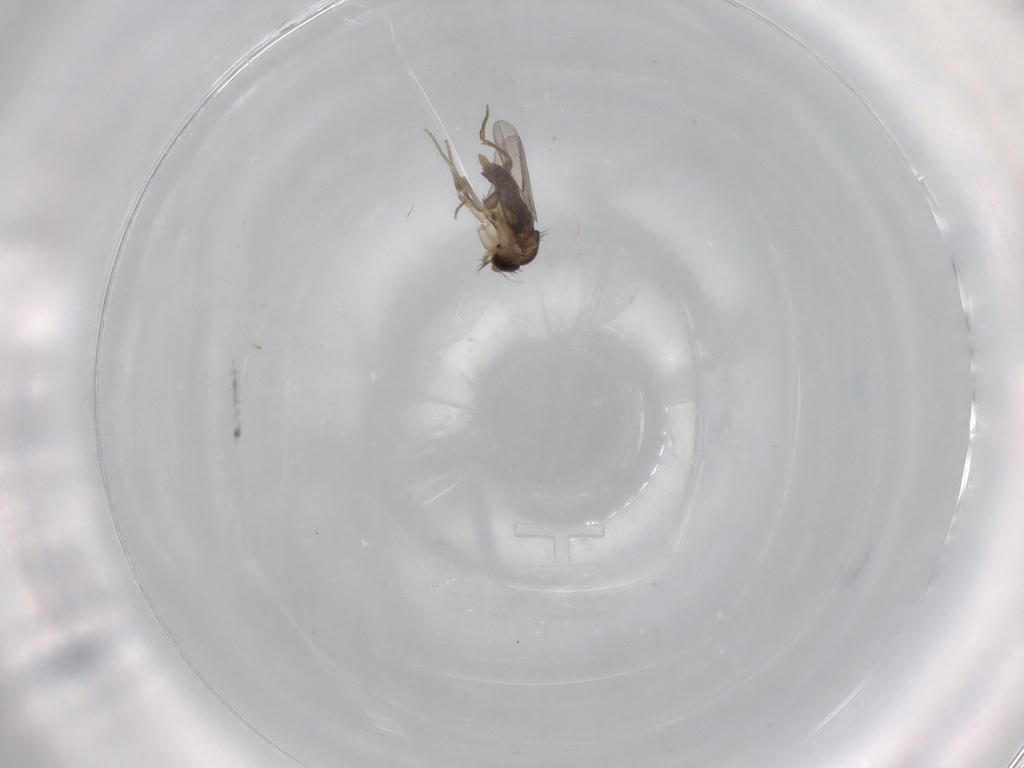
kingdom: Animalia
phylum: Arthropoda
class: Insecta
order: Diptera
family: Phoridae
